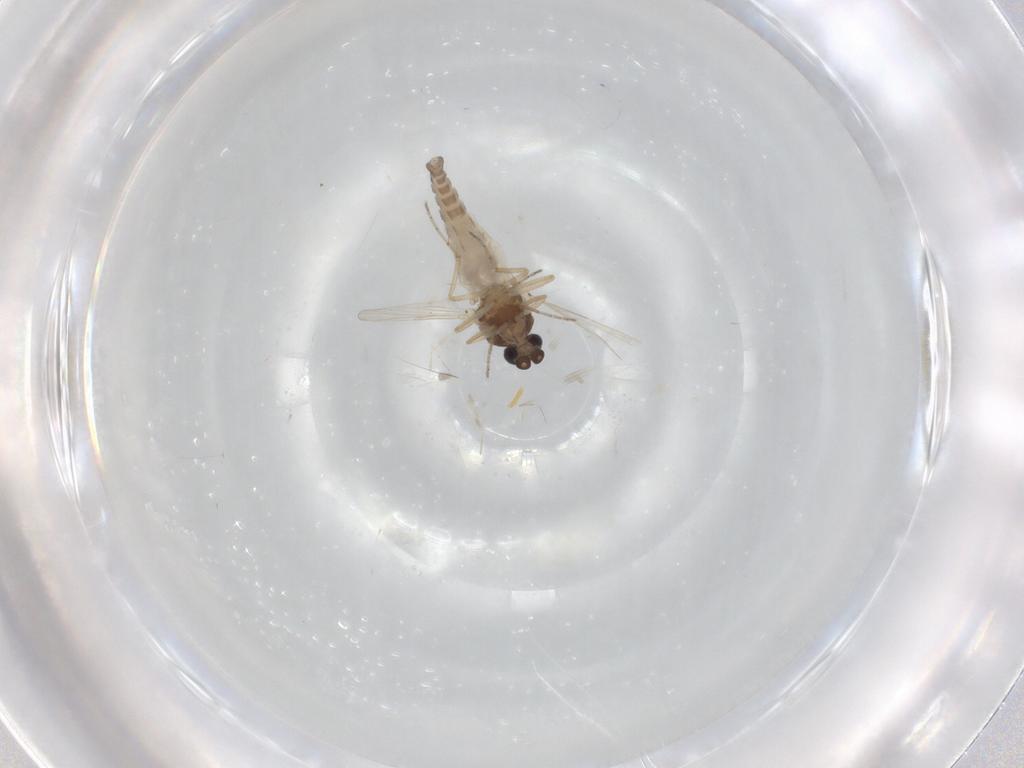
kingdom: Animalia
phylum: Arthropoda
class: Insecta
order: Diptera
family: Ceratopogonidae
